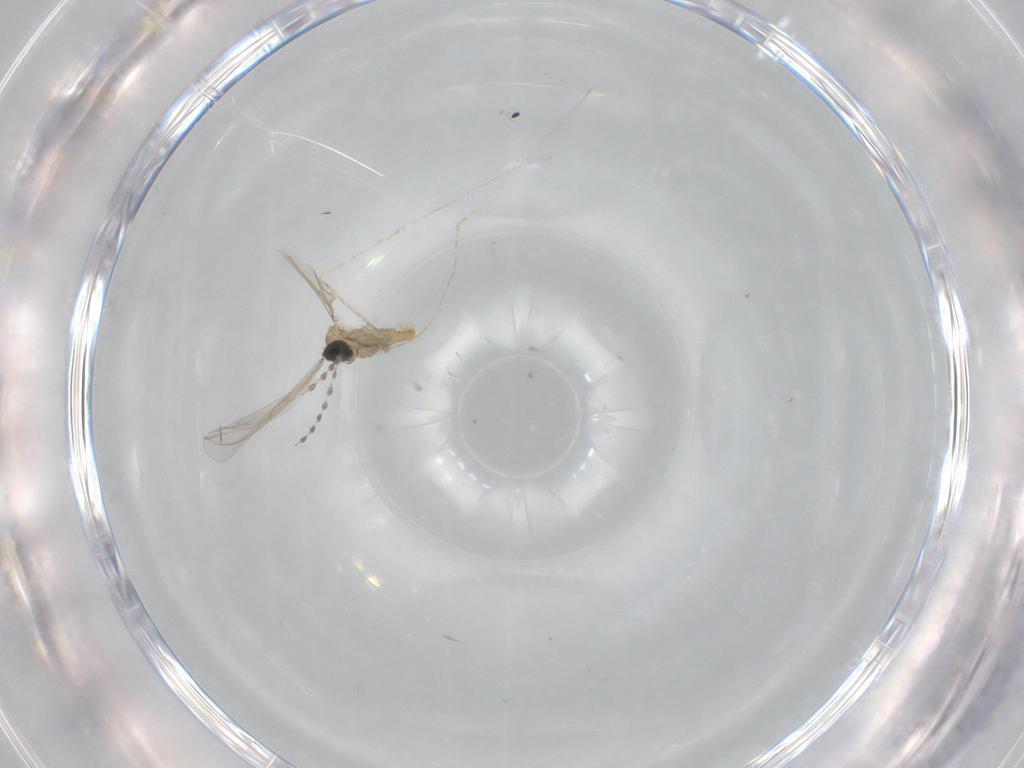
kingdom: Animalia
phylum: Arthropoda
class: Insecta
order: Diptera
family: Cecidomyiidae
